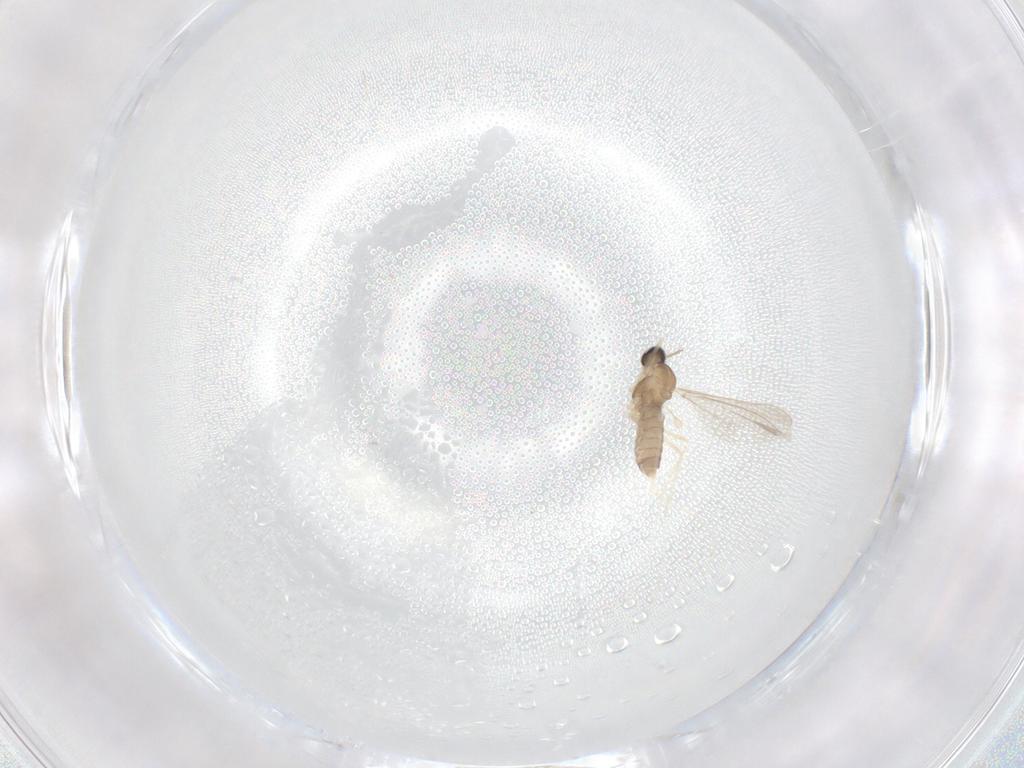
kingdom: Animalia
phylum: Arthropoda
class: Insecta
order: Diptera
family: Cecidomyiidae
